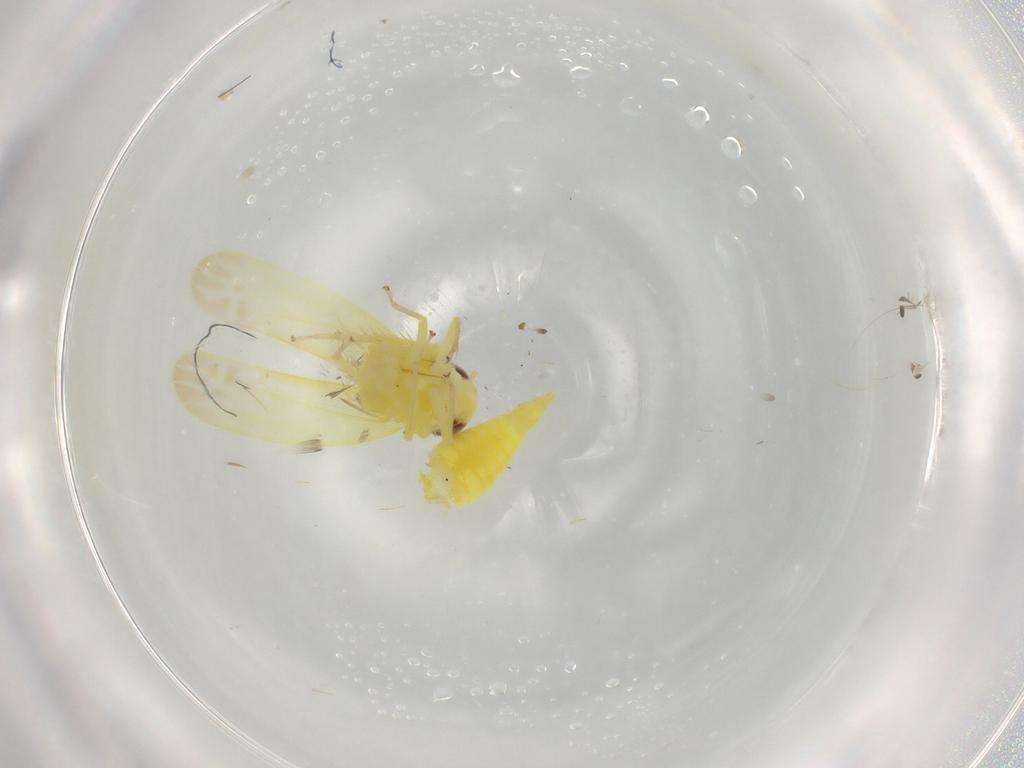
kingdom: Animalia
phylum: Arthropoda
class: Insecta
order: Hemiptera
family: Cicadellidae
